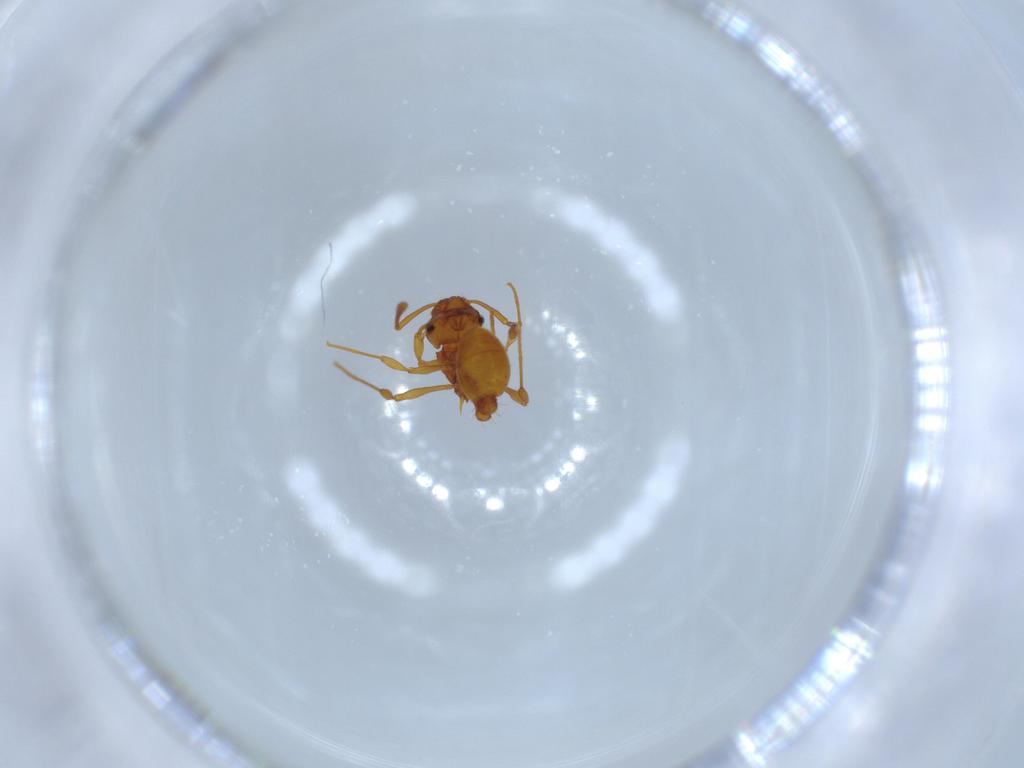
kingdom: Animalia
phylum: Arthropoda
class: Insecta
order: Hymenoptera
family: Formicidae
